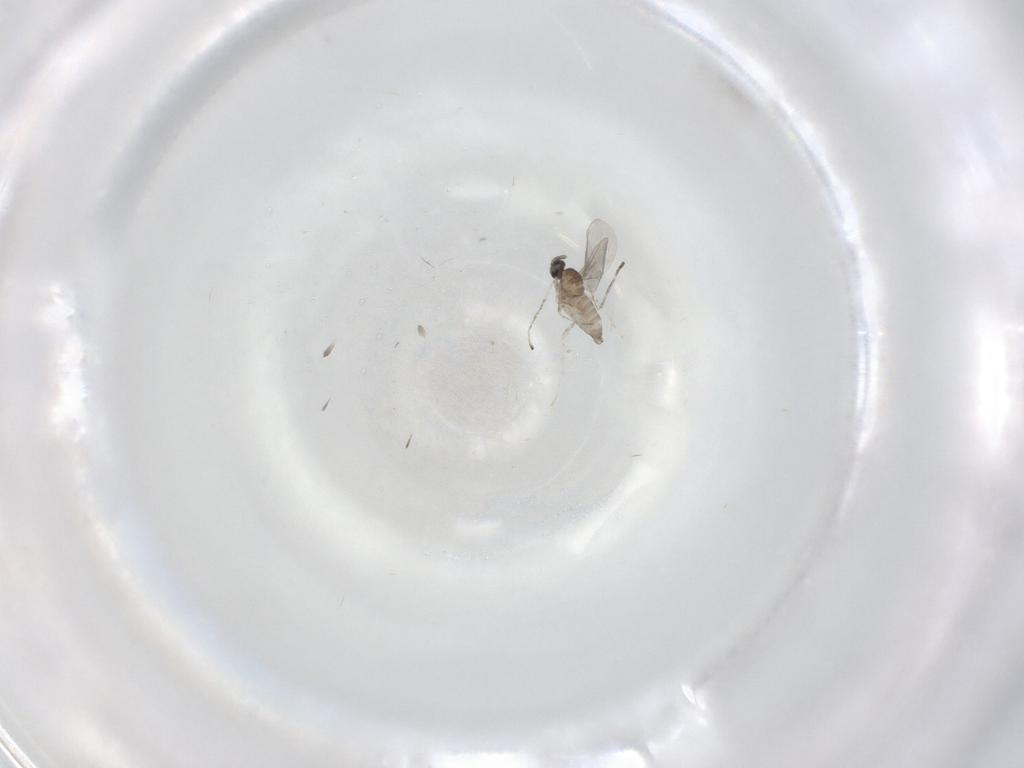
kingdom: Animalia
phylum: Arthropoda
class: Insecta
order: Diptera
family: Cecidomyiidae
